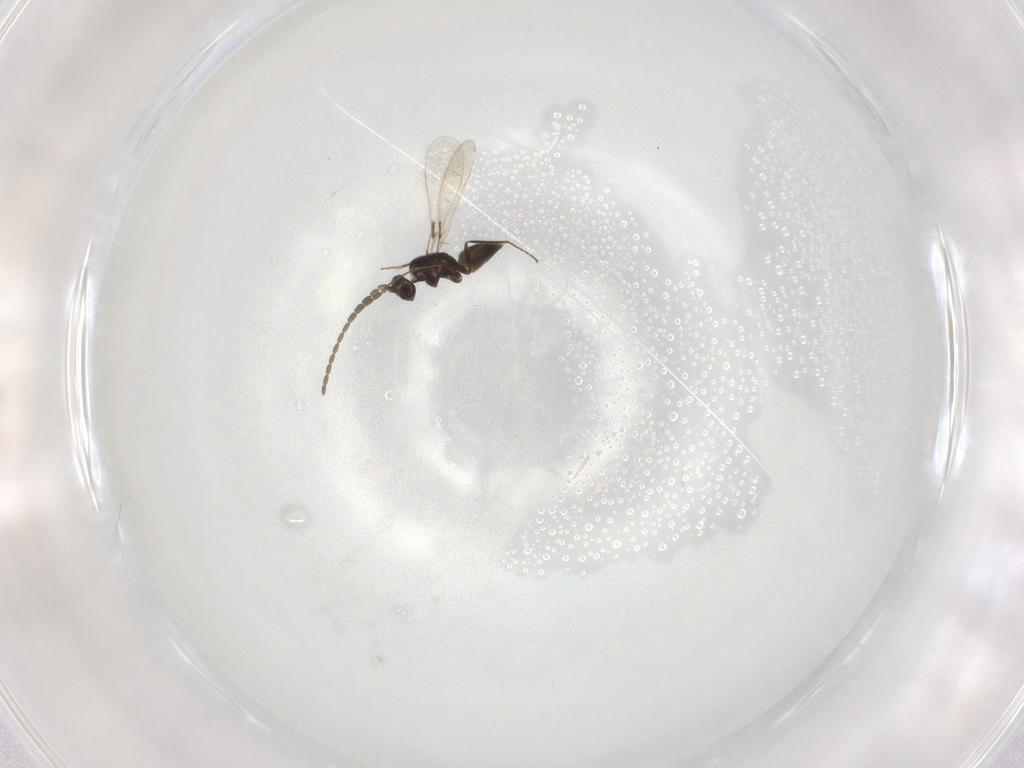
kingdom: Animalia
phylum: Arthropoda
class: Insecta
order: Hymenoptera
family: Mymaridae
